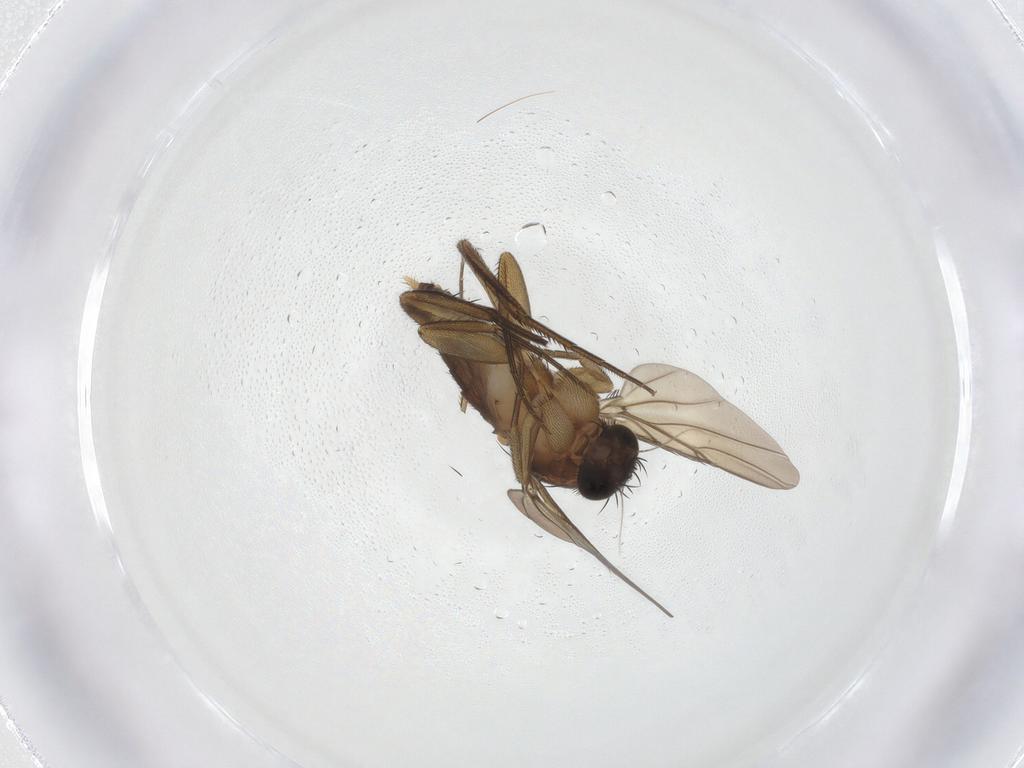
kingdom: Animalia
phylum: Arthropoda
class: Insecta
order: Diptera
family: Phoridae
